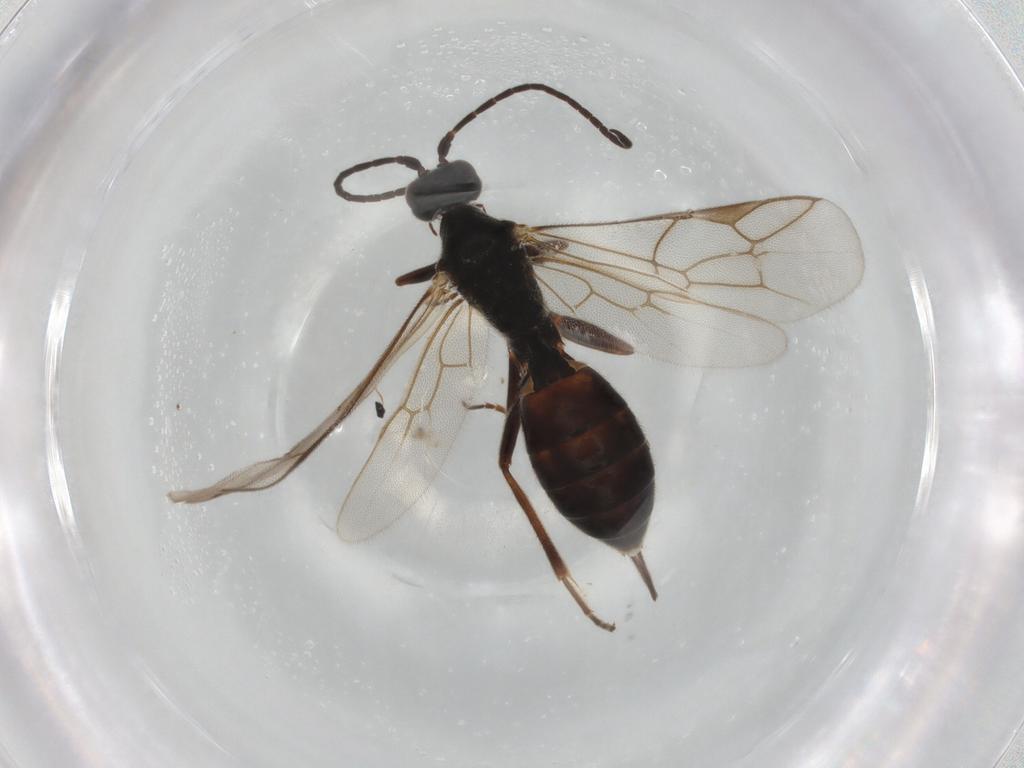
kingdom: Animalia
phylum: Arthropoda
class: Insecta
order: Hymenoptera
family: Ichneumonidae
